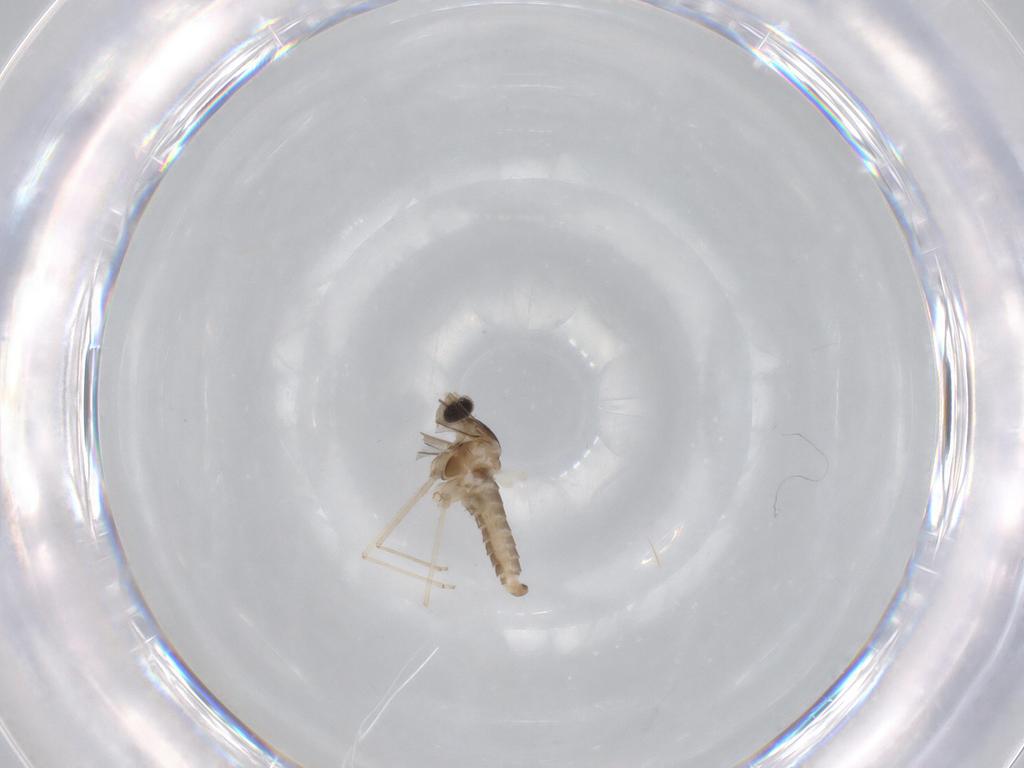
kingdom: Animalia
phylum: Arthropoda
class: Insecta
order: Diptera
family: Cecidomyiidae
